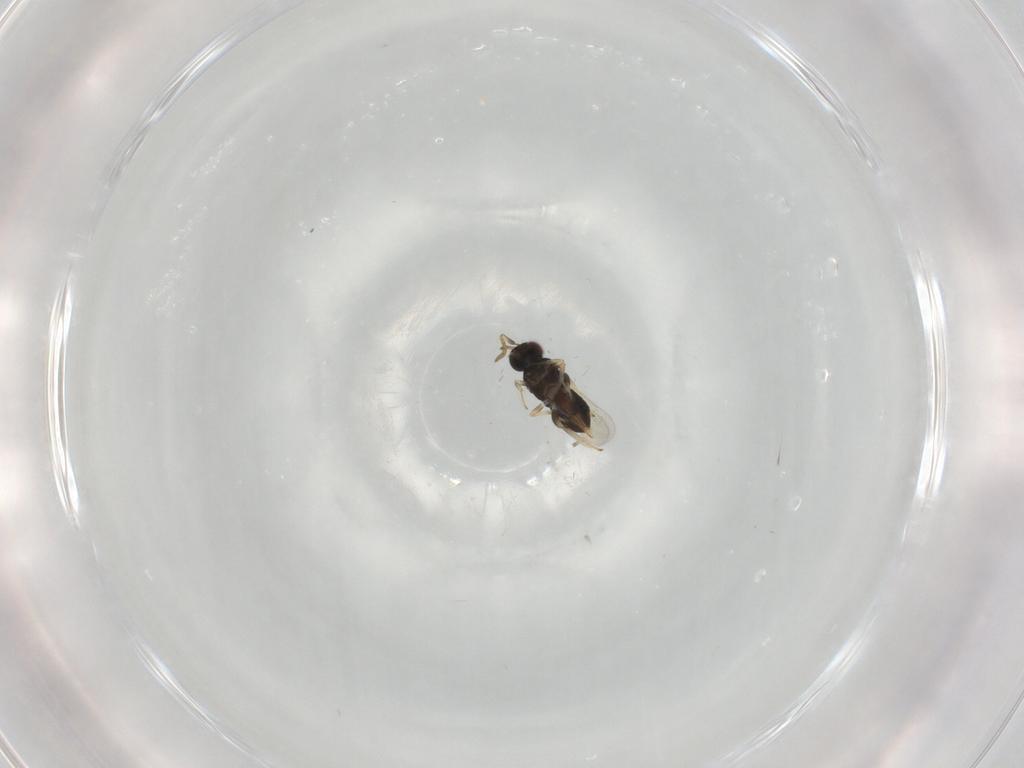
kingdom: Animalia
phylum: Arthropoda
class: Insecta
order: Hymenoptera
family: Aphelinidae
